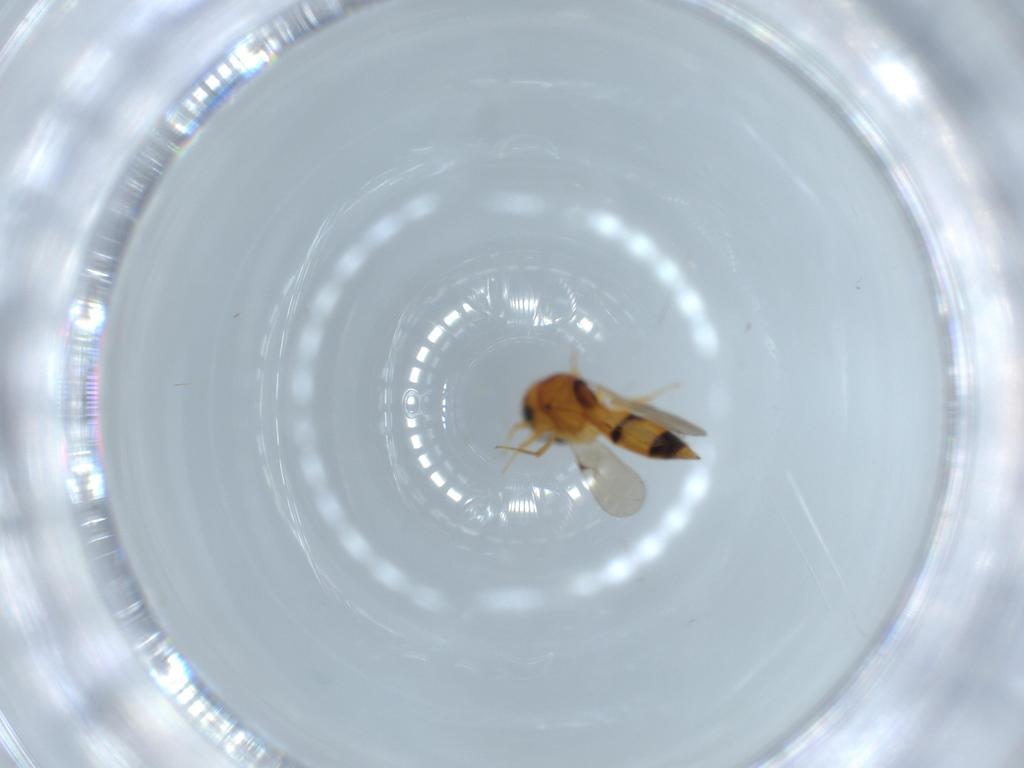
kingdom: Animalia
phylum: Arthropoda
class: Insecta
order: Hymenoptera
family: Scelionidae
